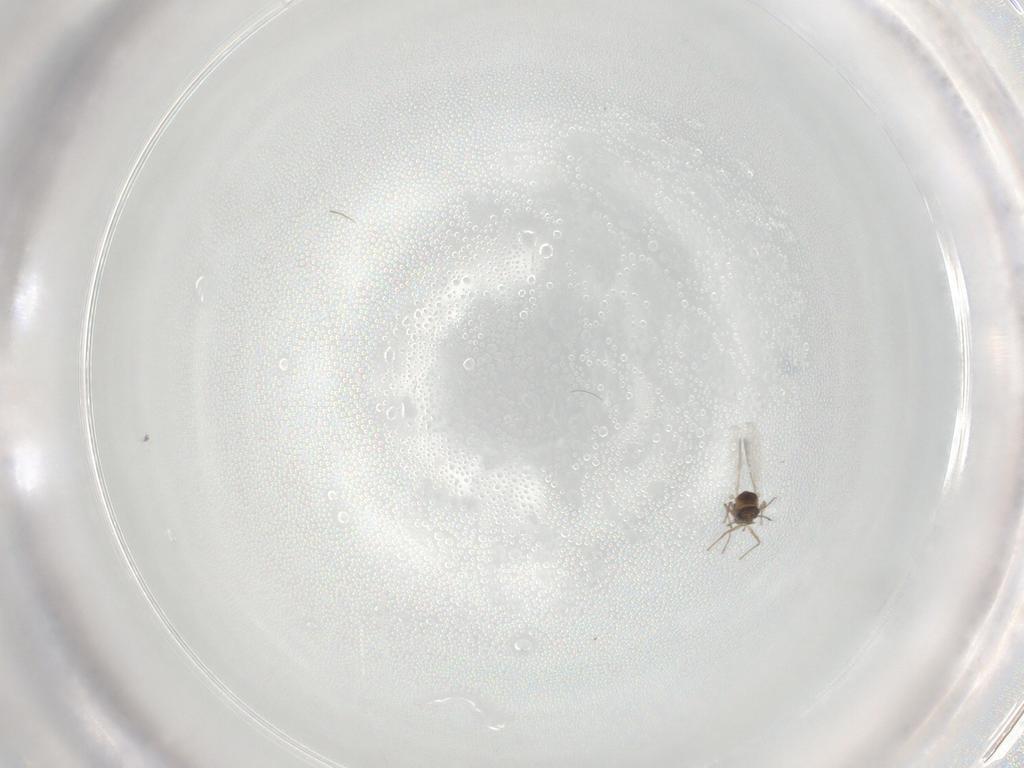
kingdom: Animalia
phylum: Arthropoda
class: Insecta
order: Diptera
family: Chironomidae
